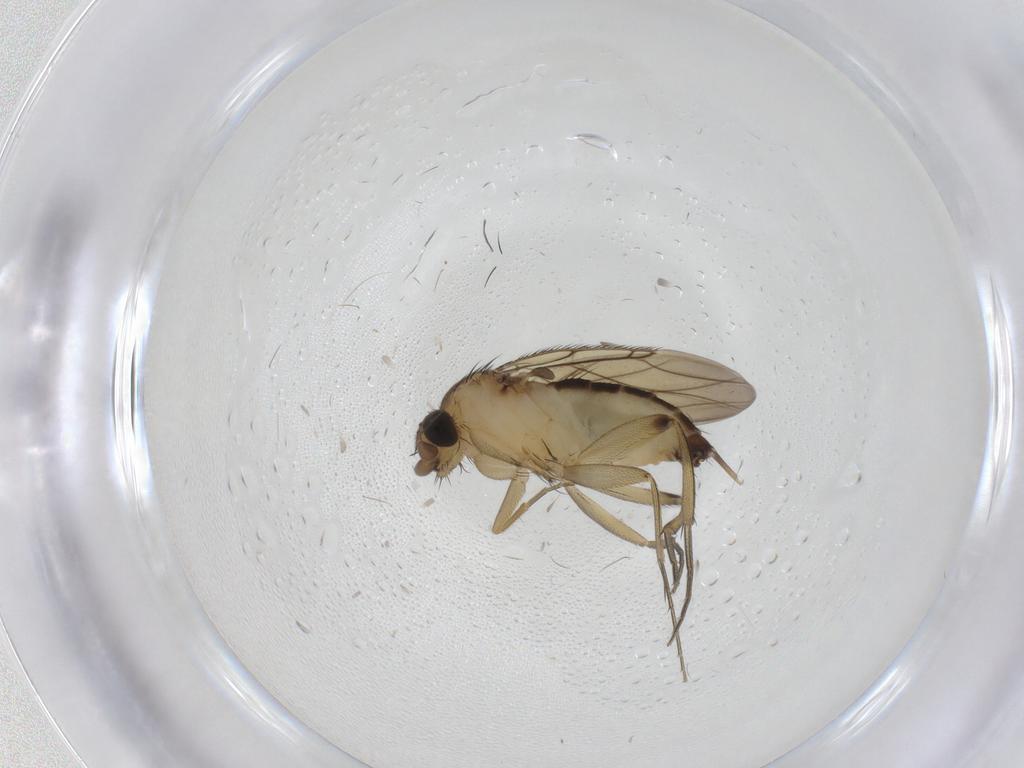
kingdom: Animalia
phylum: Arthropoda
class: Insecta
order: Diptera
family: Phoridae
